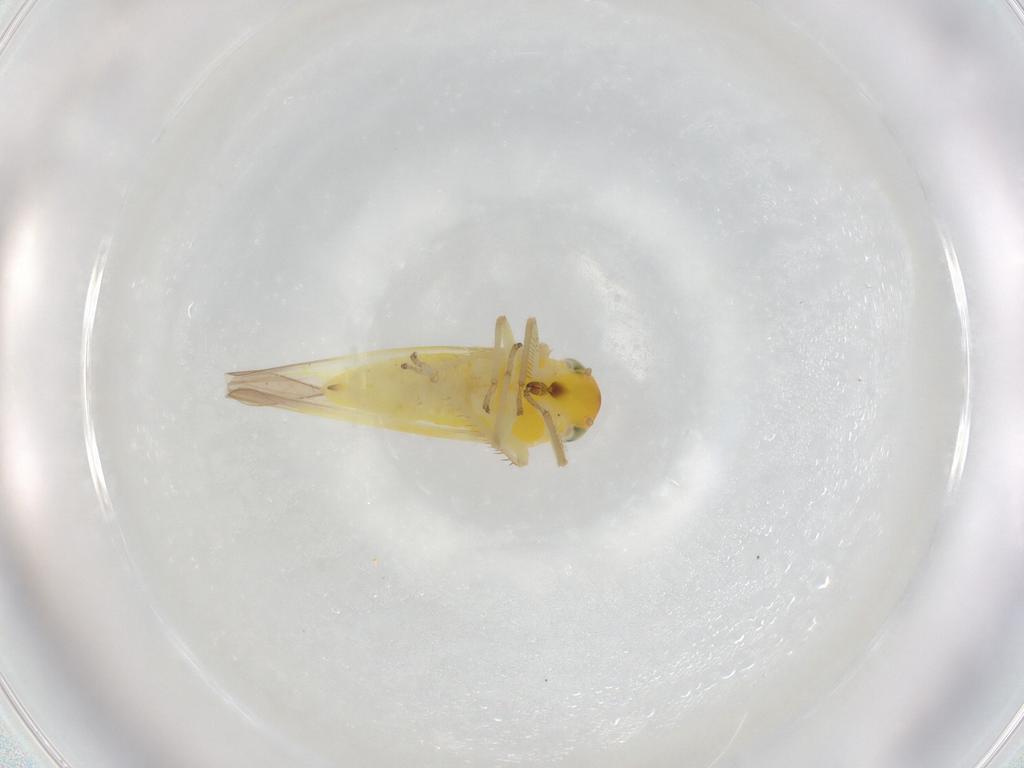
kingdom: Animalia
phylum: Arthropoda
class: Insecta
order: Hemiptera
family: Cicadellidae
